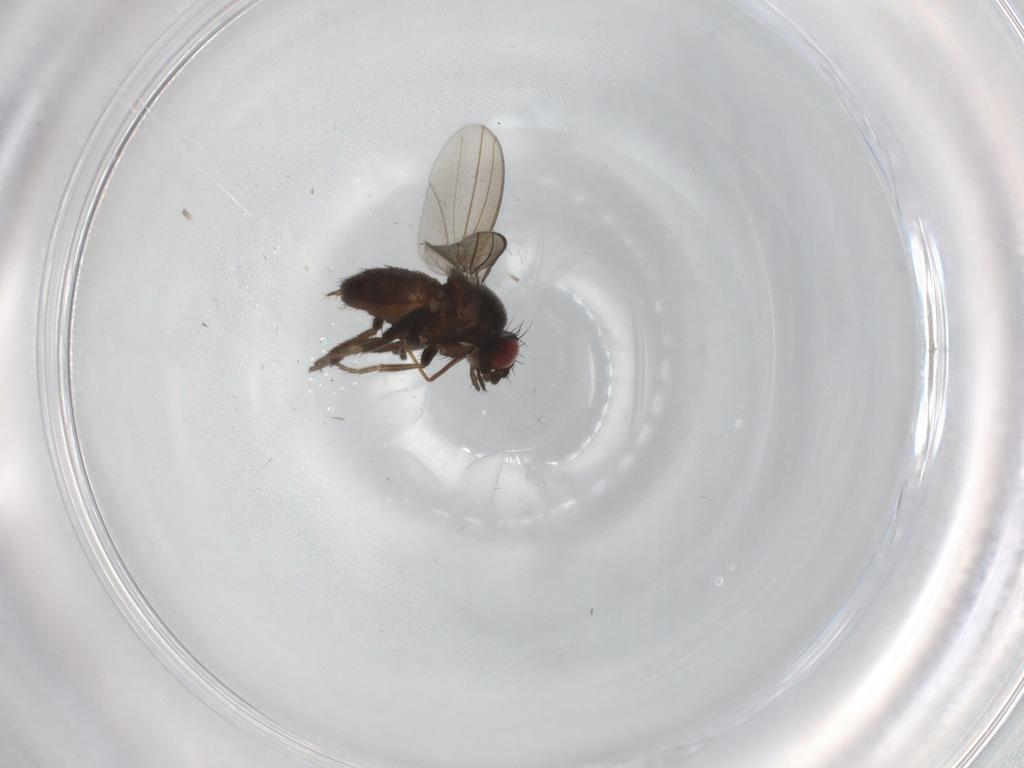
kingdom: Animalia
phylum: Arthropoda
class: Insecta
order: Diptera
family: Milichiidae
